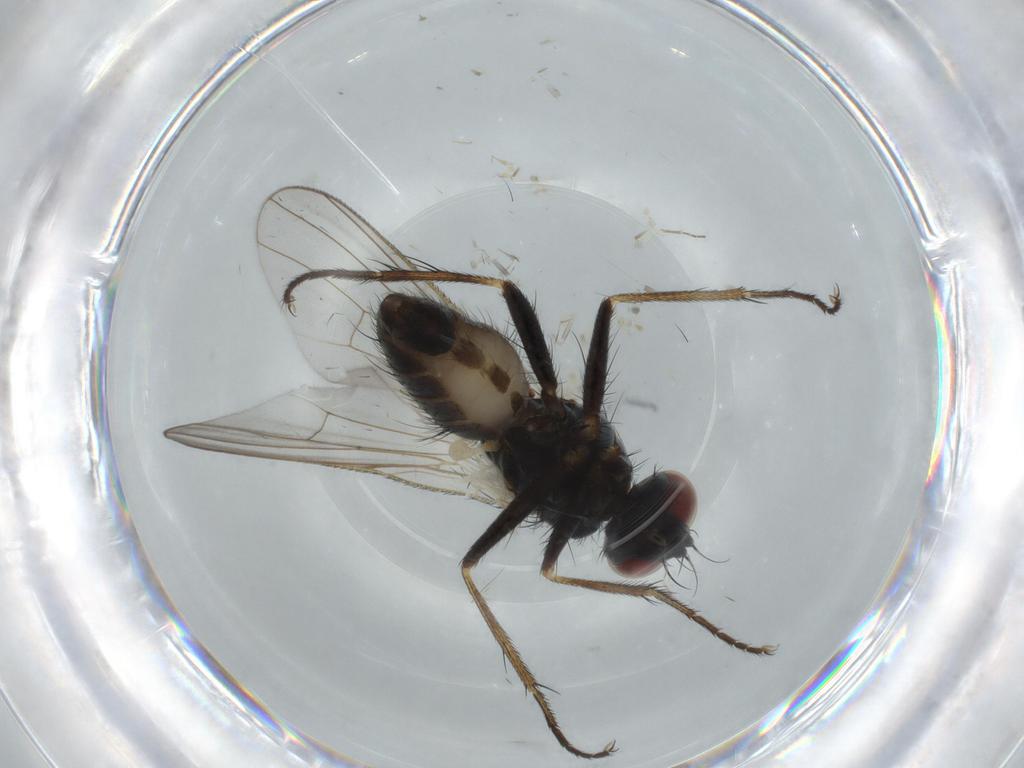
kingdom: Animalia
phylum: Arthropoda
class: Insecta
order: Diptera
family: Sciaridae
